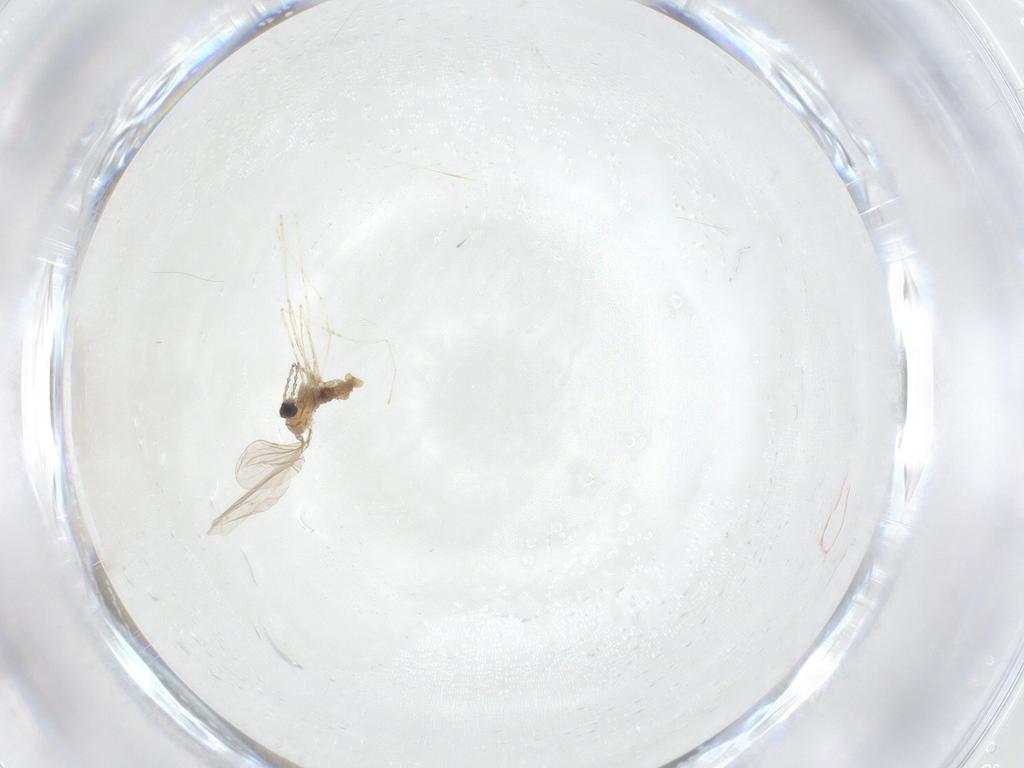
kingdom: Animalia
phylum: Arthropoda
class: Insecta
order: Diptera
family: Cecidomyiidae
